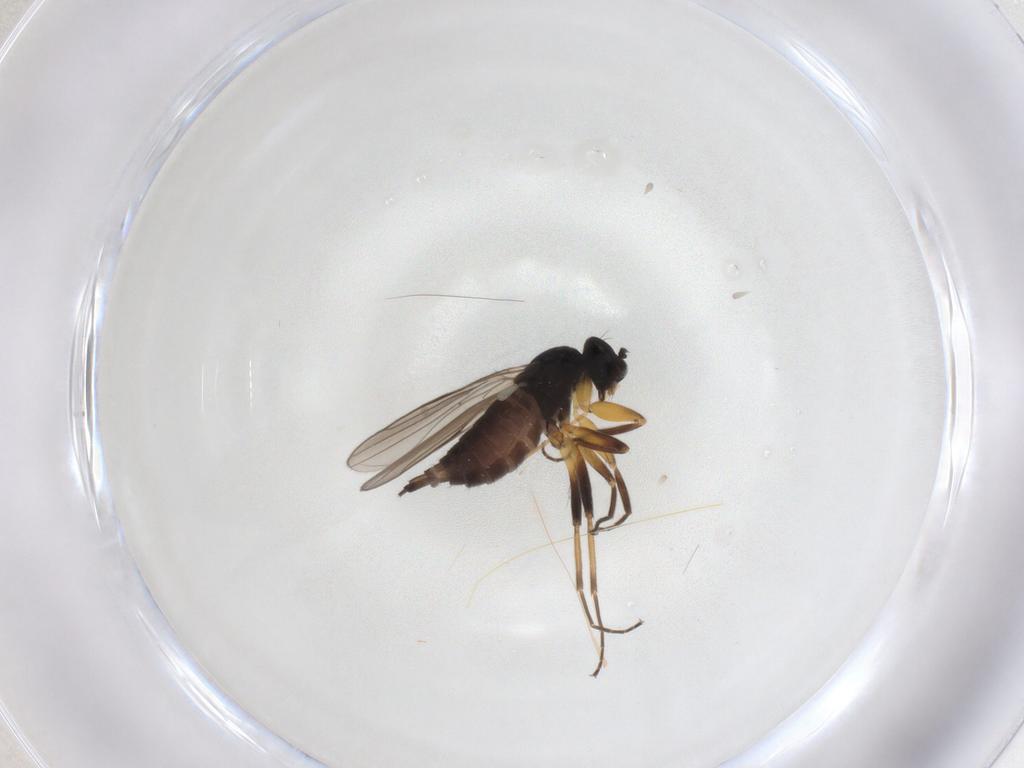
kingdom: Animalia
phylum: Arthropoda
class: Insecta
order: Diptera
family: Hybotidae
